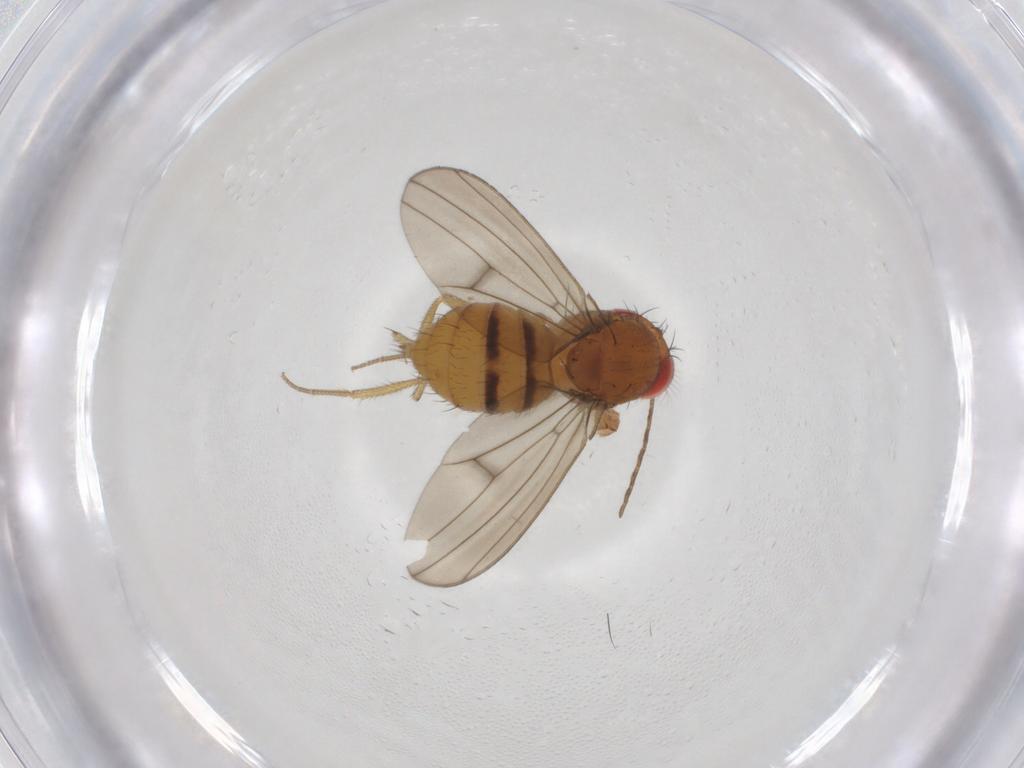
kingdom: Animalia
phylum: Arthropoda
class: Insecta
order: Diptera
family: Drosophilidae
